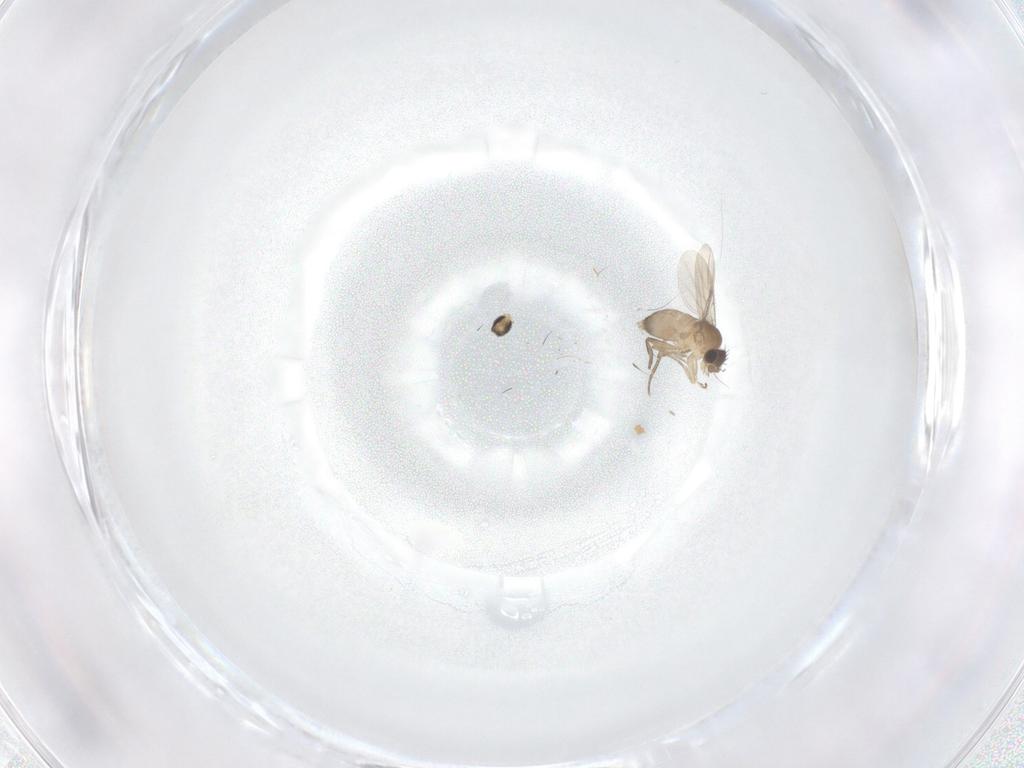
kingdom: Animalia
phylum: Arthropoda
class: Insecta
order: Diptera
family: Phoridae
